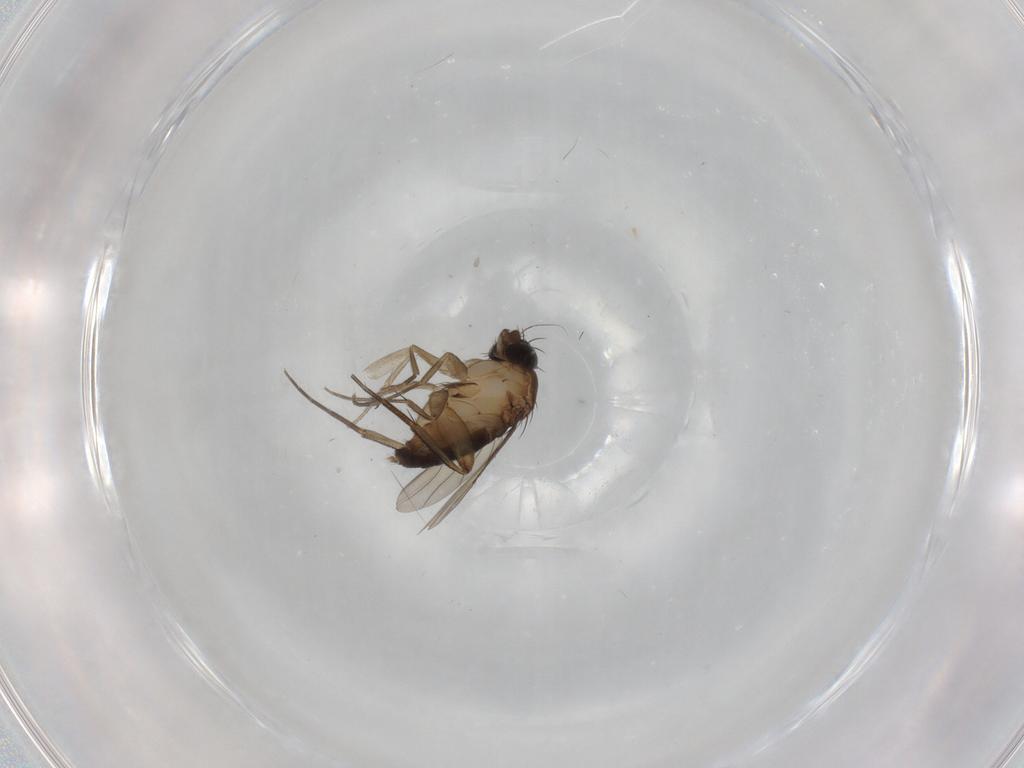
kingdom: Animalia
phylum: Arthropoda
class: Insecta
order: Diptera
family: Phoridae
